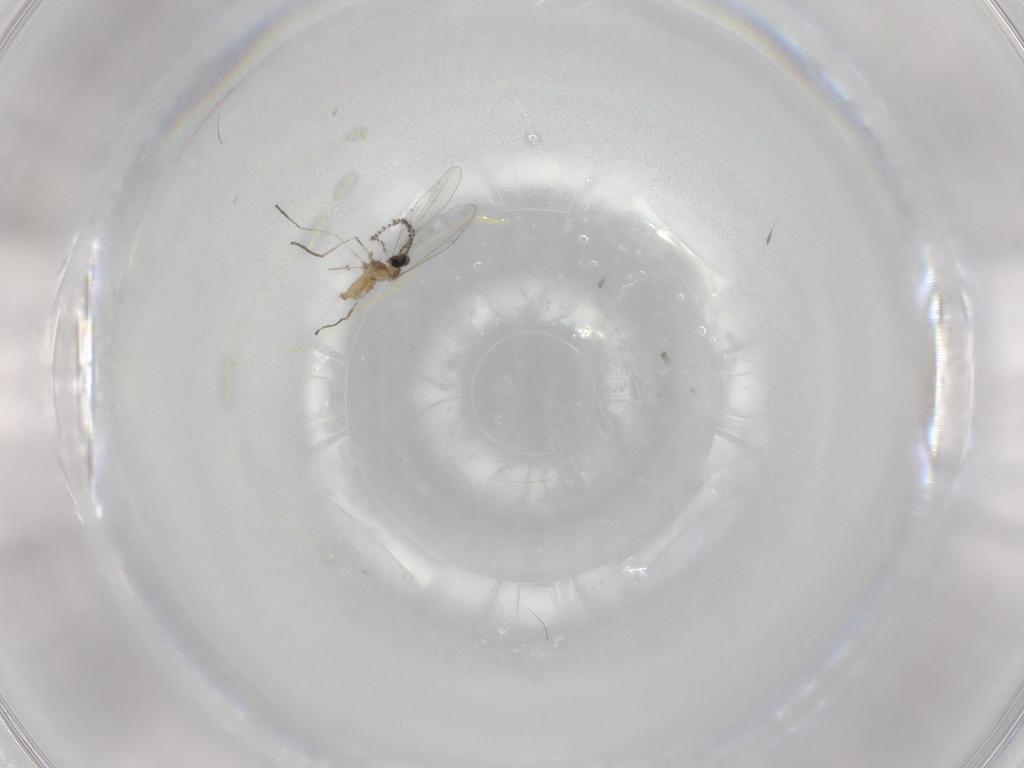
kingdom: Animalia
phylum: Arthropoda
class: Insecta
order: Diptera
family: Cecidomyiidae
